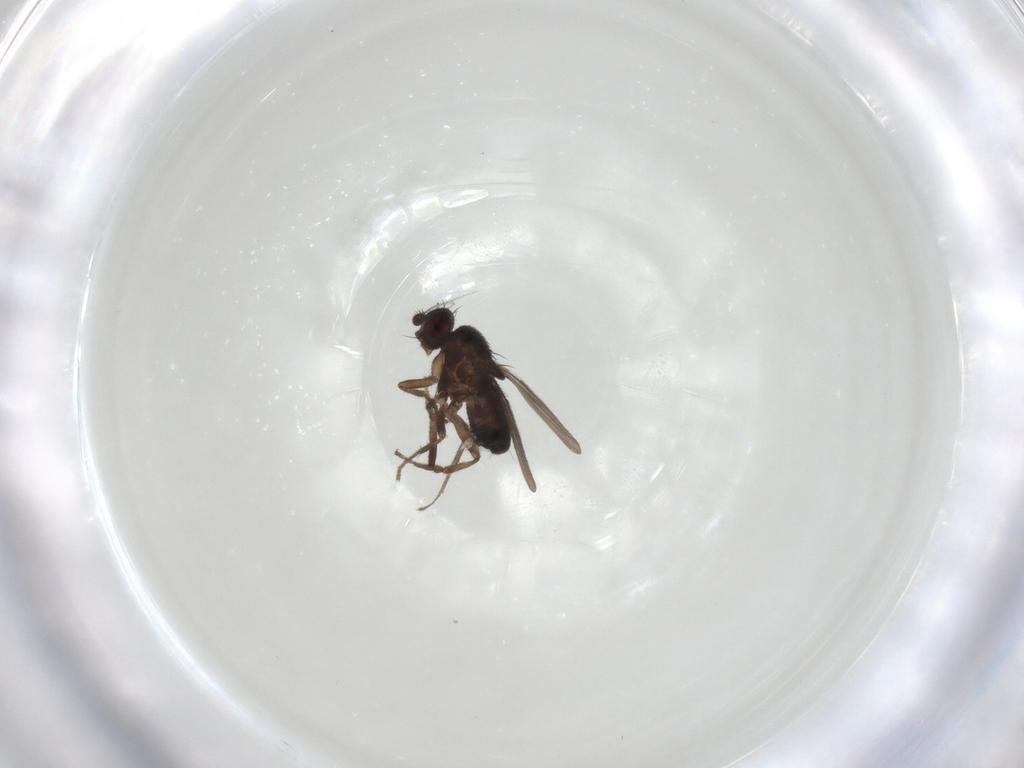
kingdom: Animalia
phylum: Arthropoda
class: Insecta
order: Diptera
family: Sphaeroceridae
